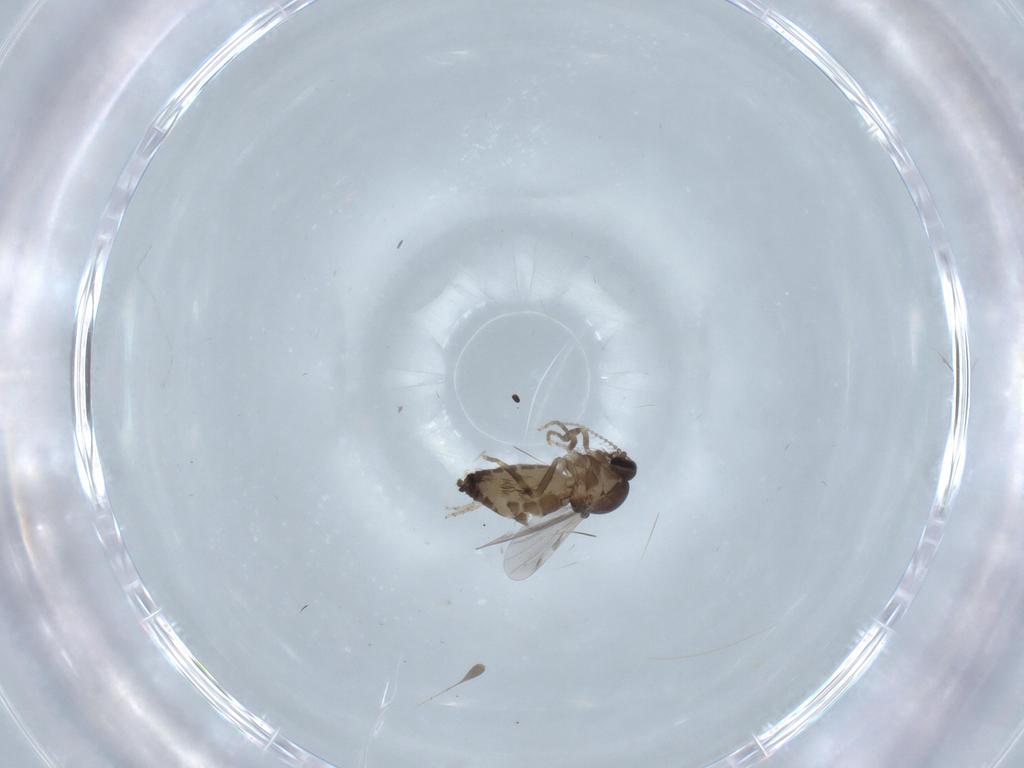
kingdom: Animalia
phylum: Arthropoda
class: Insecta
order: Diptera
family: Ceratopogonidae
